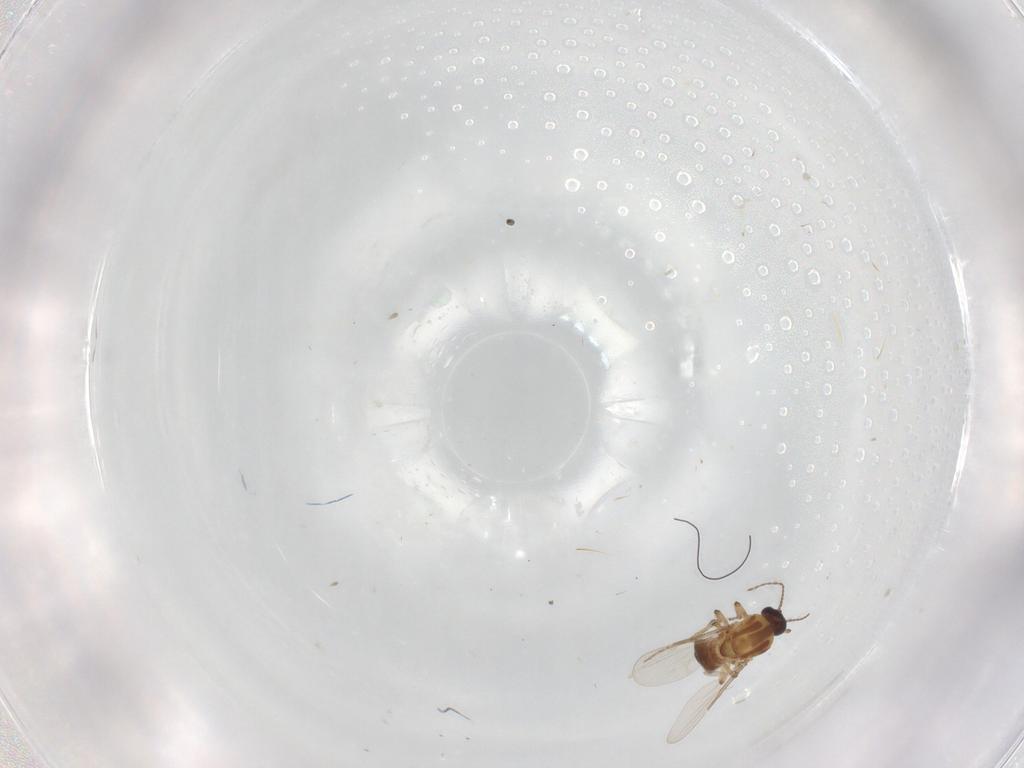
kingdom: Animalia
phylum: Arthropoda
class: Insecta
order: Diptera
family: Ceratopogonidae
